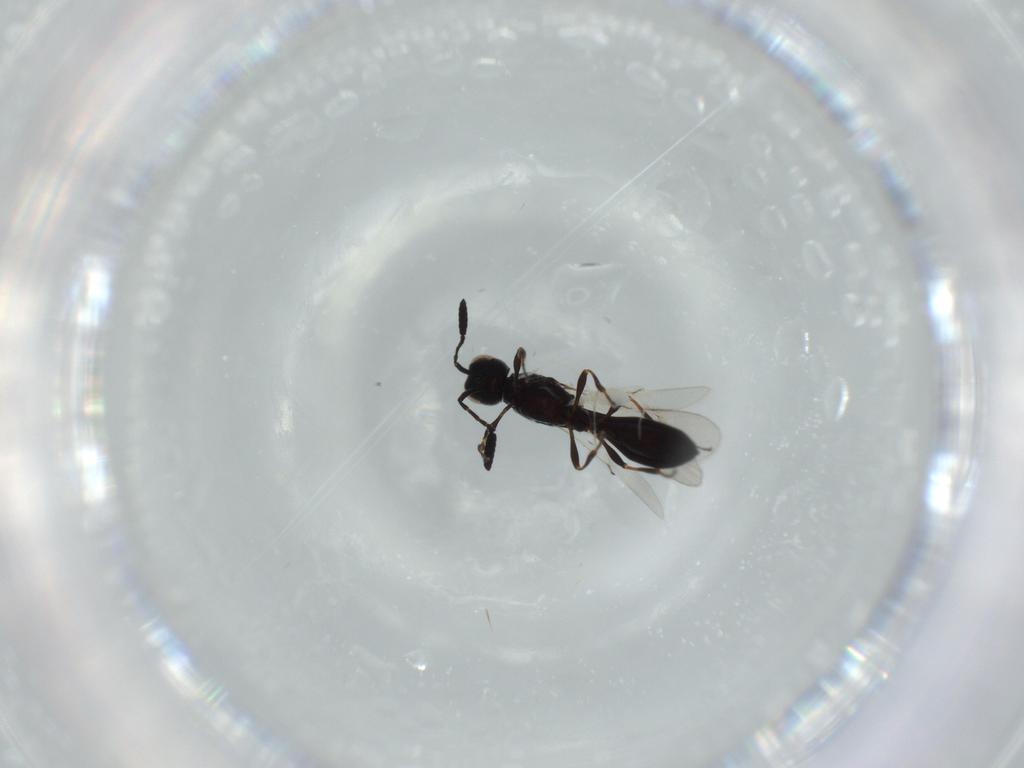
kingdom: Animalia
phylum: Arthropoda
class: Insecta
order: Hymenoptera
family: Scelionidae
